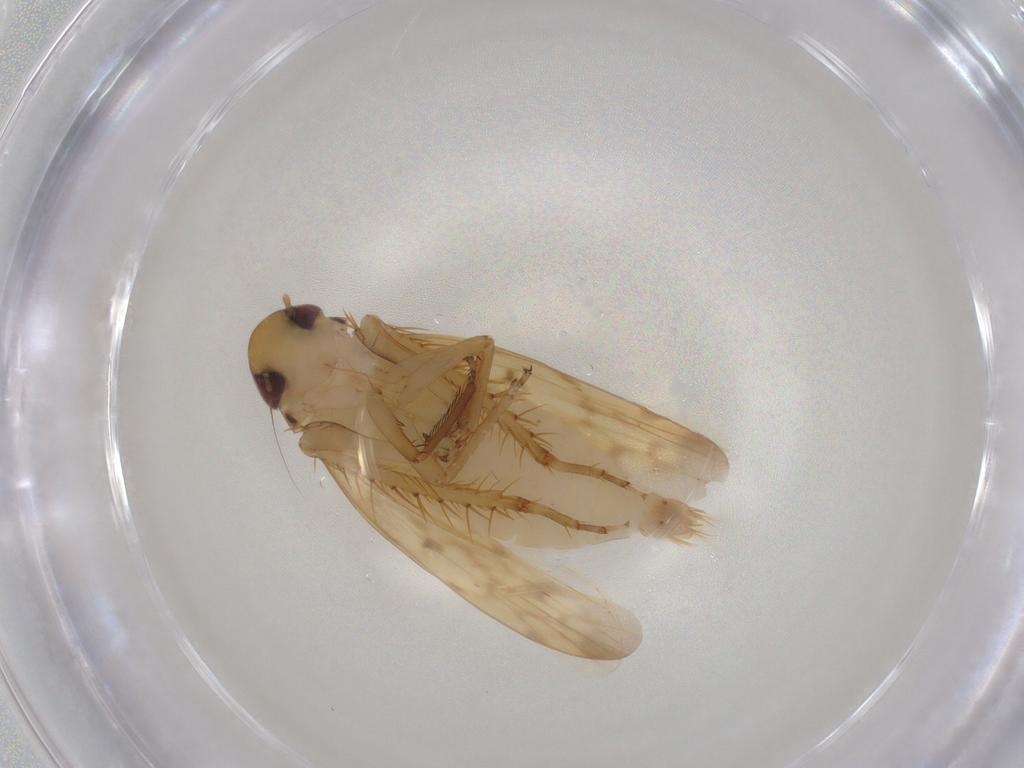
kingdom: Animalia
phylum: Arthropoda
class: Insecta
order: Hemiptera
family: Cicadellidae
